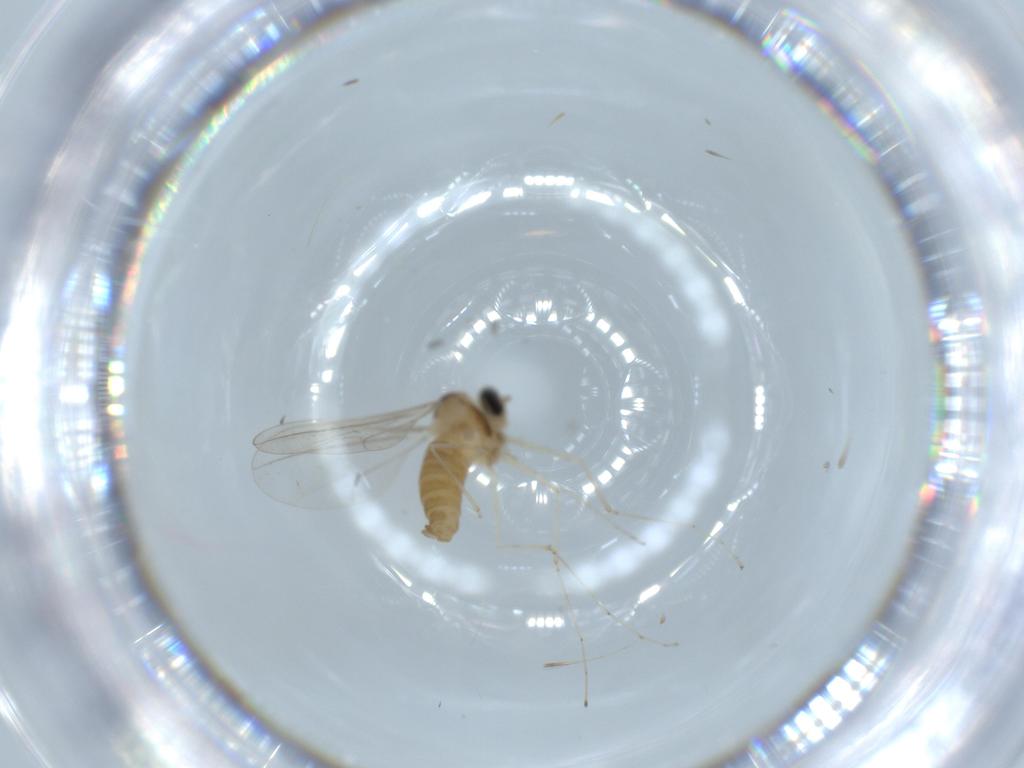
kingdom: Animalia
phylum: Arthropoda
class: Insecta
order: Diptera
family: Cecidomyiidae
